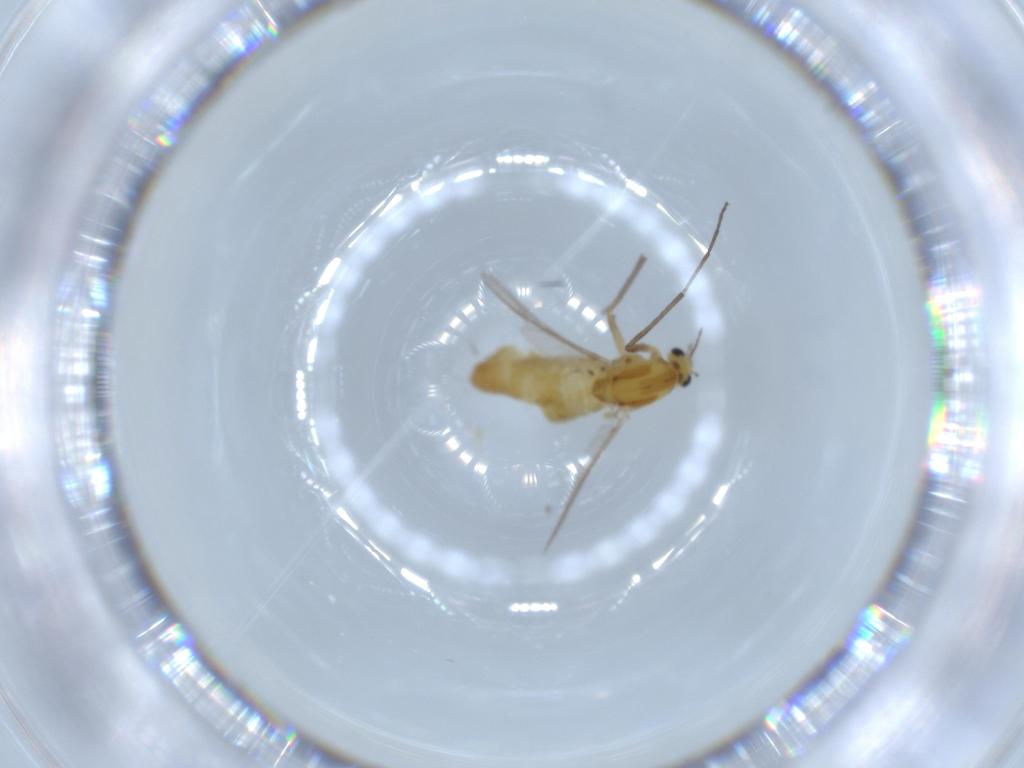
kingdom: Animalia
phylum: Arthropoda
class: Insecta
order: Diptera
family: Chironomidae
